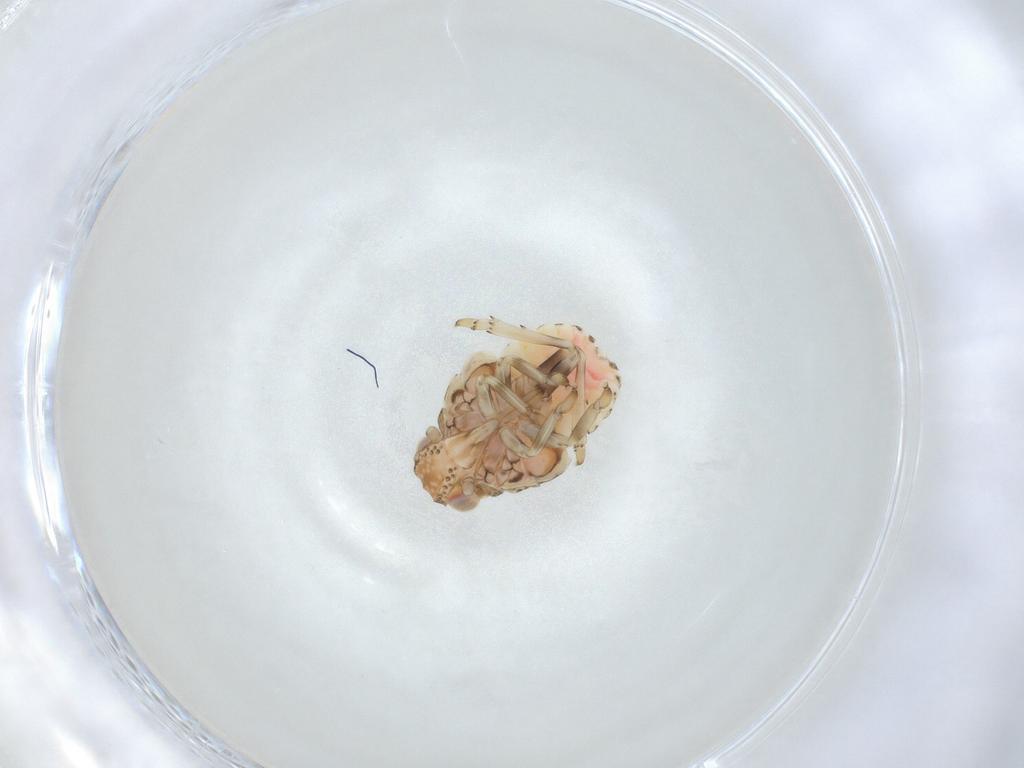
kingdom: Animalia
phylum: Arthropoda
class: Insecta
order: Hemiptera
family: Nogodinidae
